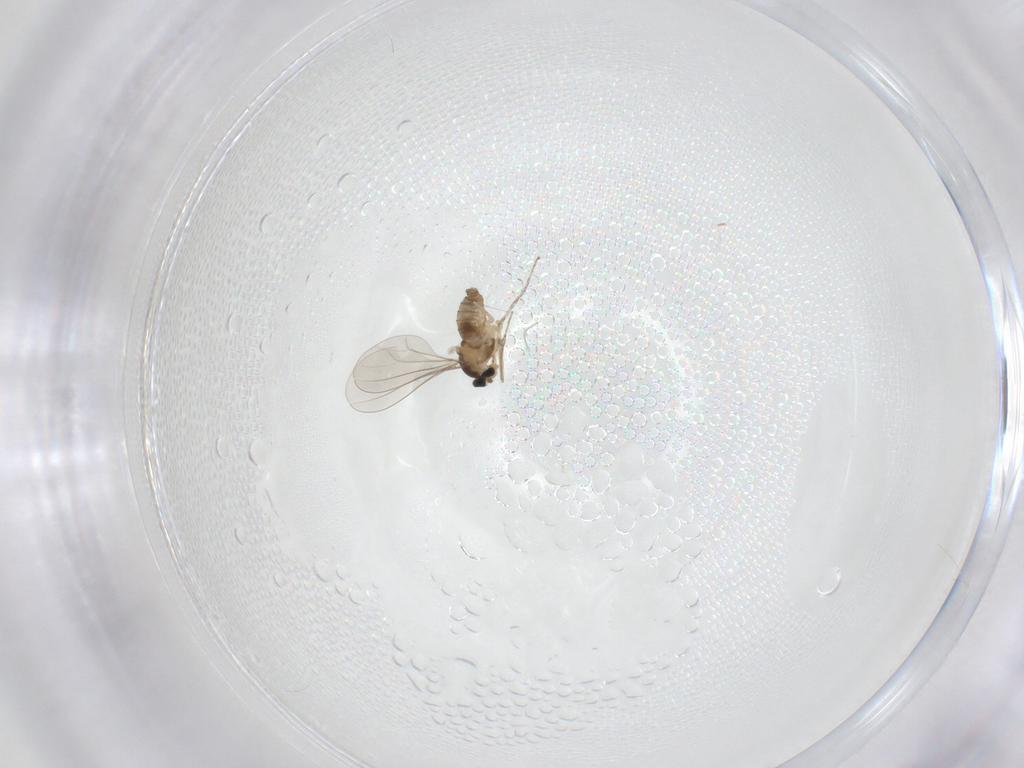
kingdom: Animalia
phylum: Arthropoda
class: Insecta
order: Diptera
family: Cecidomyiidae
